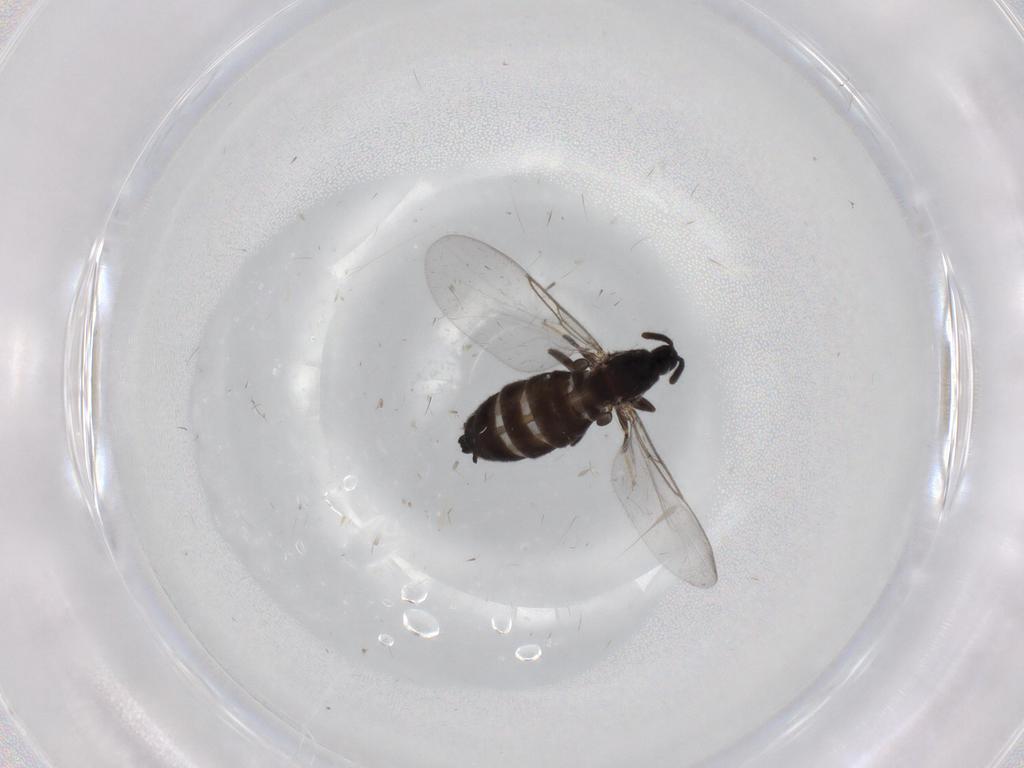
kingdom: Animalia
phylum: Arthropoda
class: Insecta
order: Diptera
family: Scatopsidae
